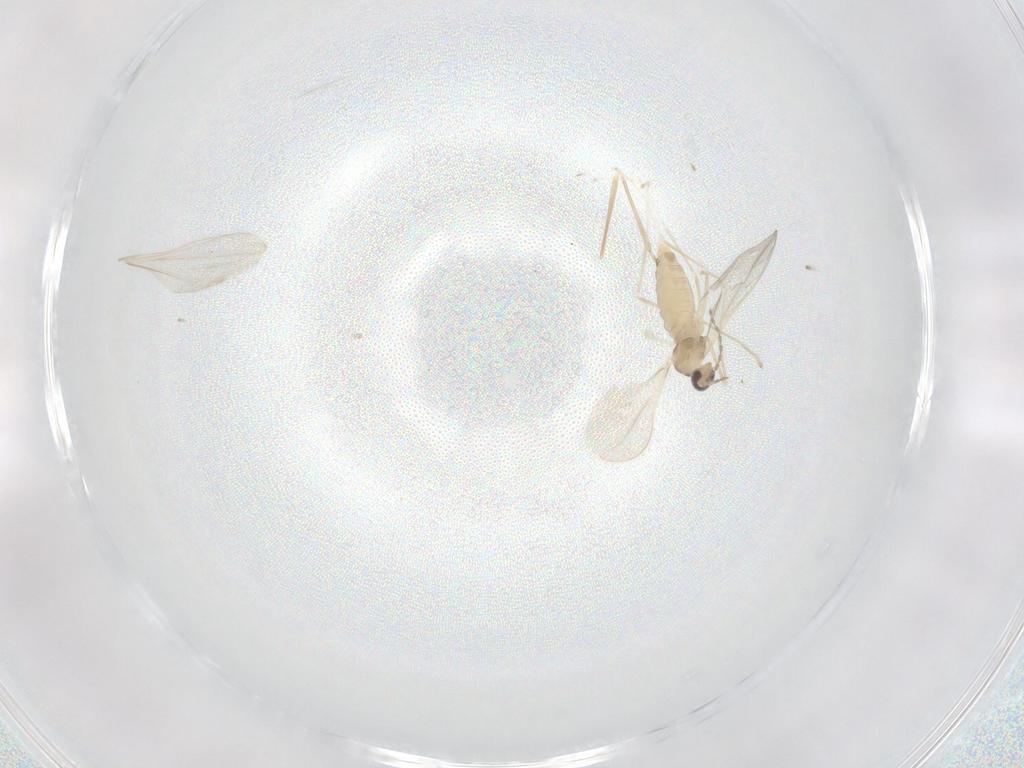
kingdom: Animalia
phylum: Arthropoda
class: Insecta
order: Diptera
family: Cecidomyiidae
